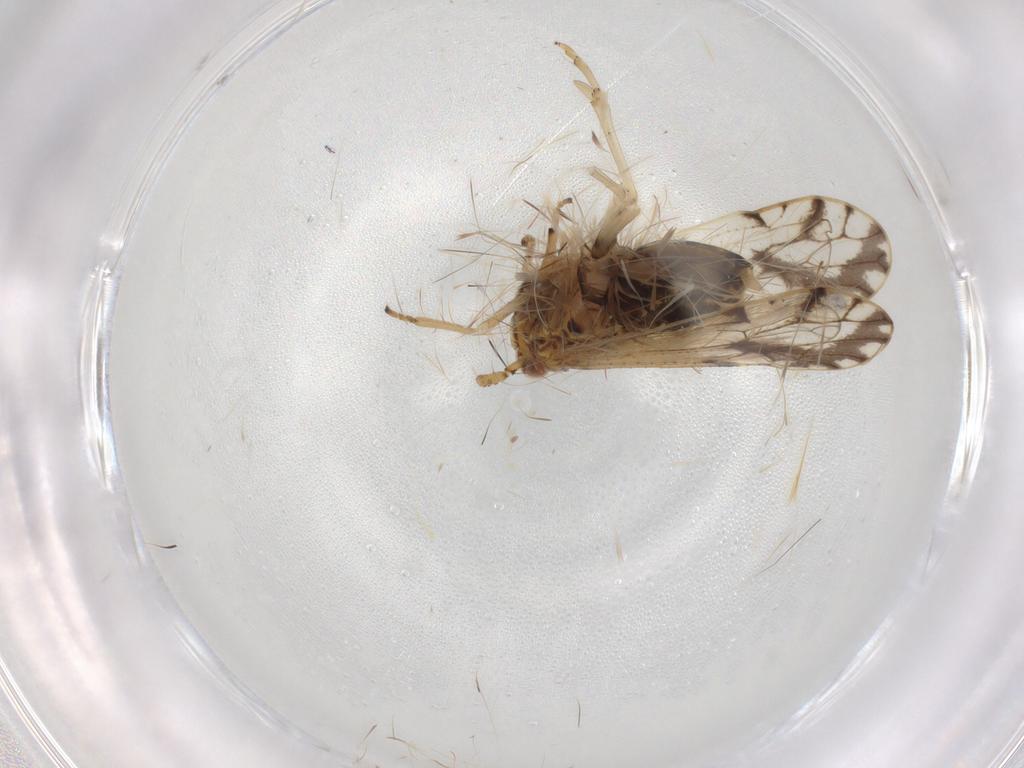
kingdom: Animalia
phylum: Arthropoda
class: Insecta
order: Hemiptera
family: Delphacidae
